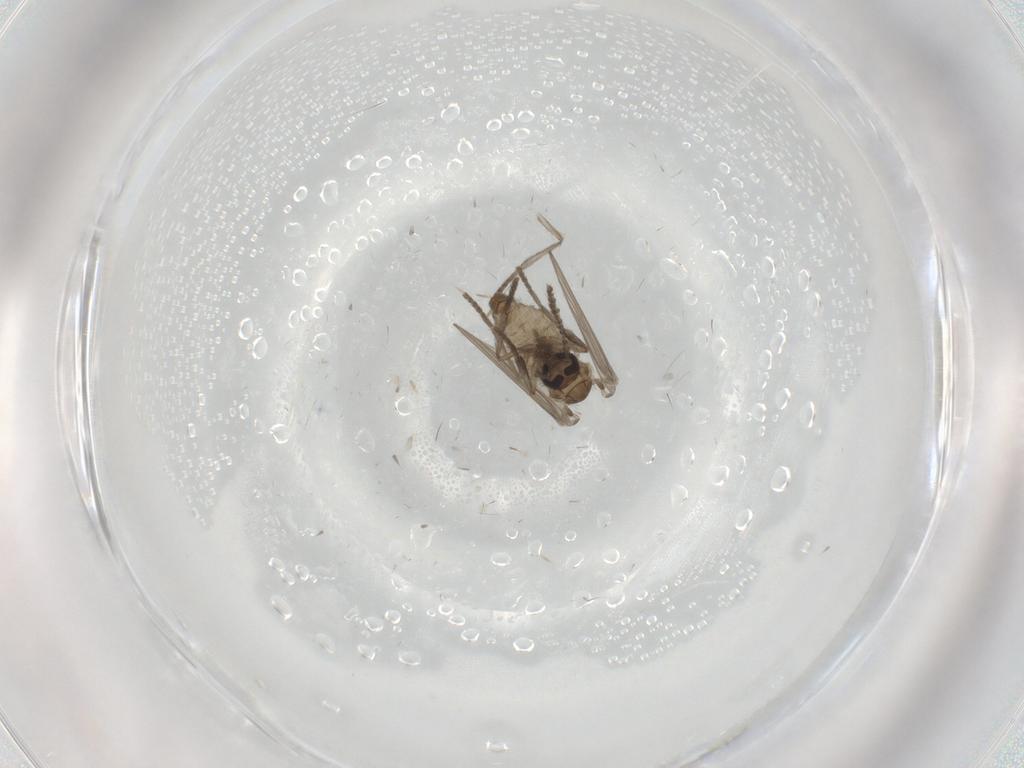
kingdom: Animalia
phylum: Arthropoda
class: Insecta
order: Diptera
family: Psychodidae
